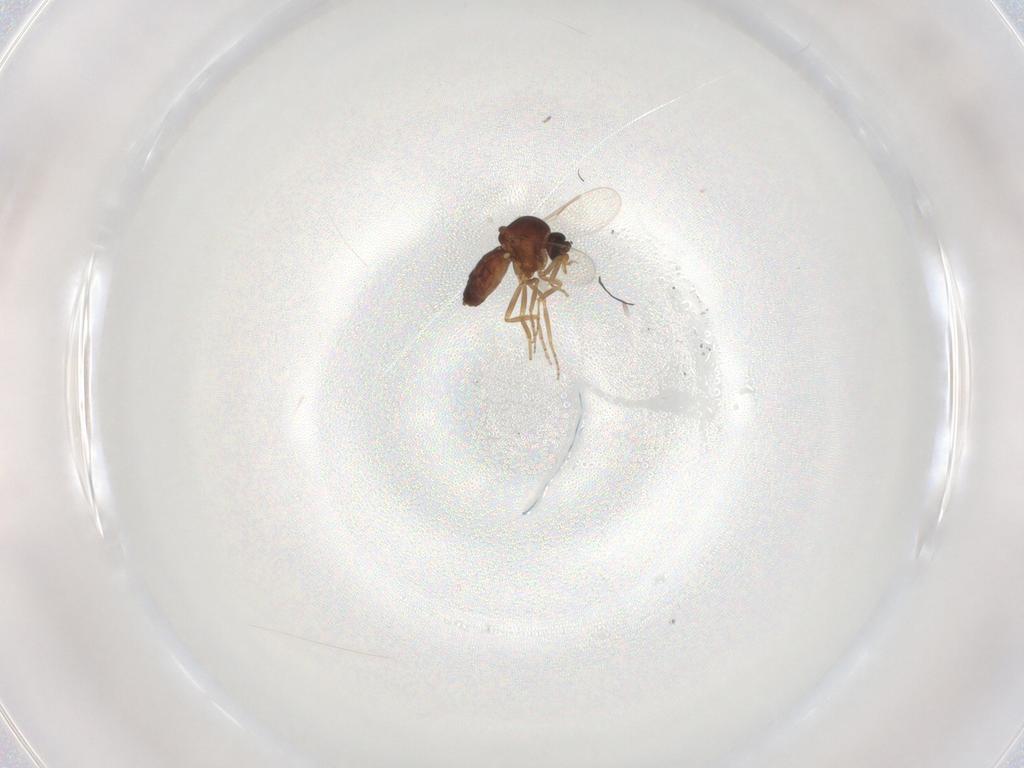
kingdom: Animalia
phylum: Arthropoda
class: Insecta
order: Diptera
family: Ceratopogonidae
